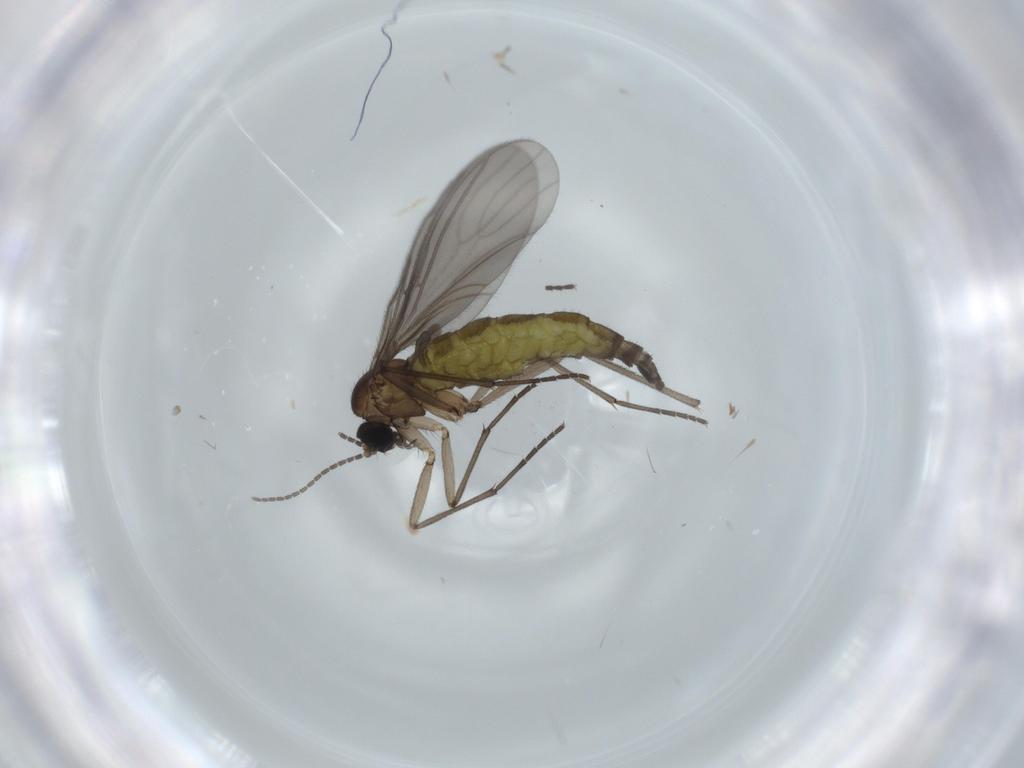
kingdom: Animalia
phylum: Arthropoda
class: Insecta
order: Diptera
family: Sciaridae
